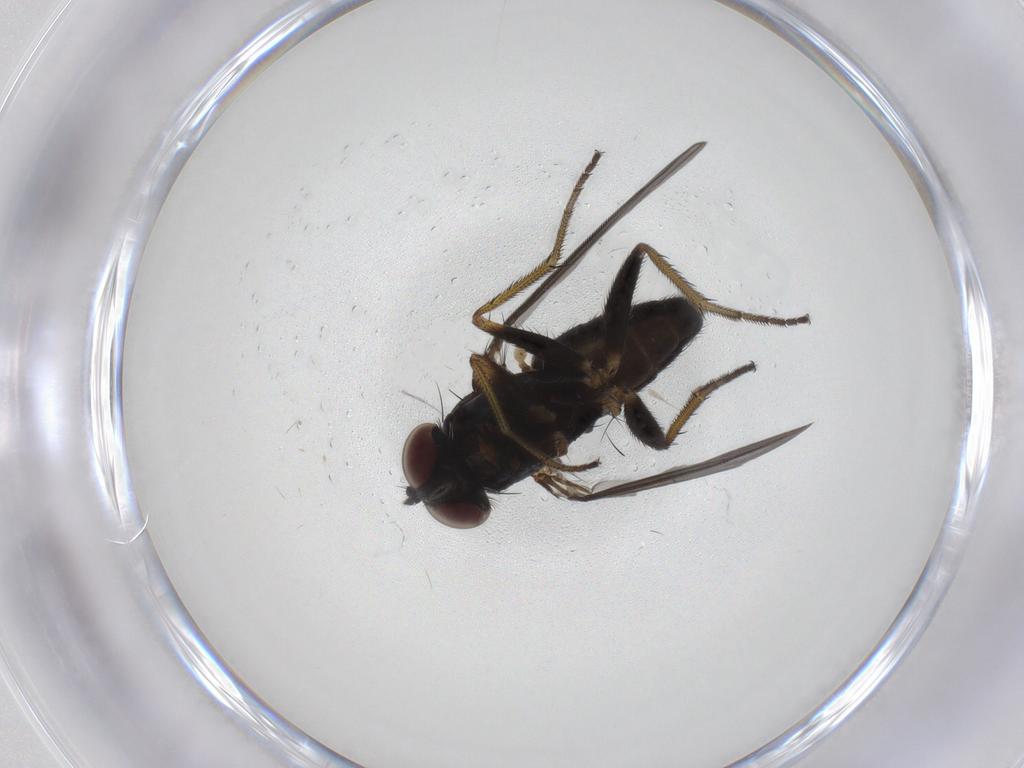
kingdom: Animalia
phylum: Arthropoda
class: Insecta
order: Diptera
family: Dolichopodidae
